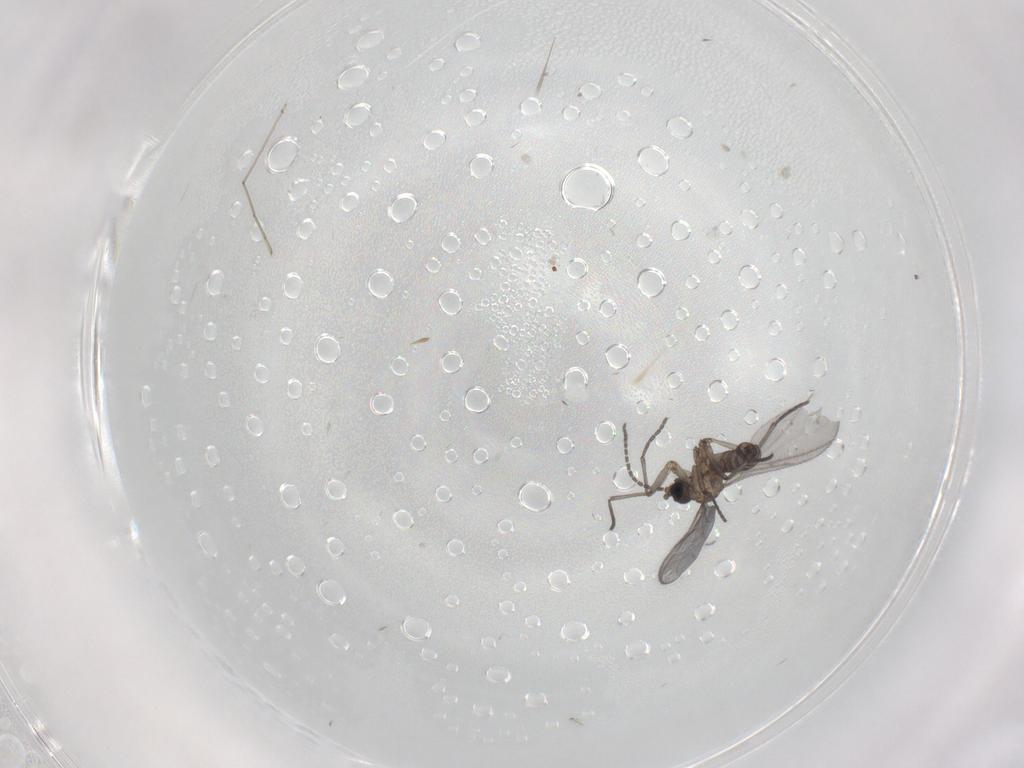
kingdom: Animalia
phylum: Arthropoda
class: Insecta
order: Diptera
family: Sciaridae
